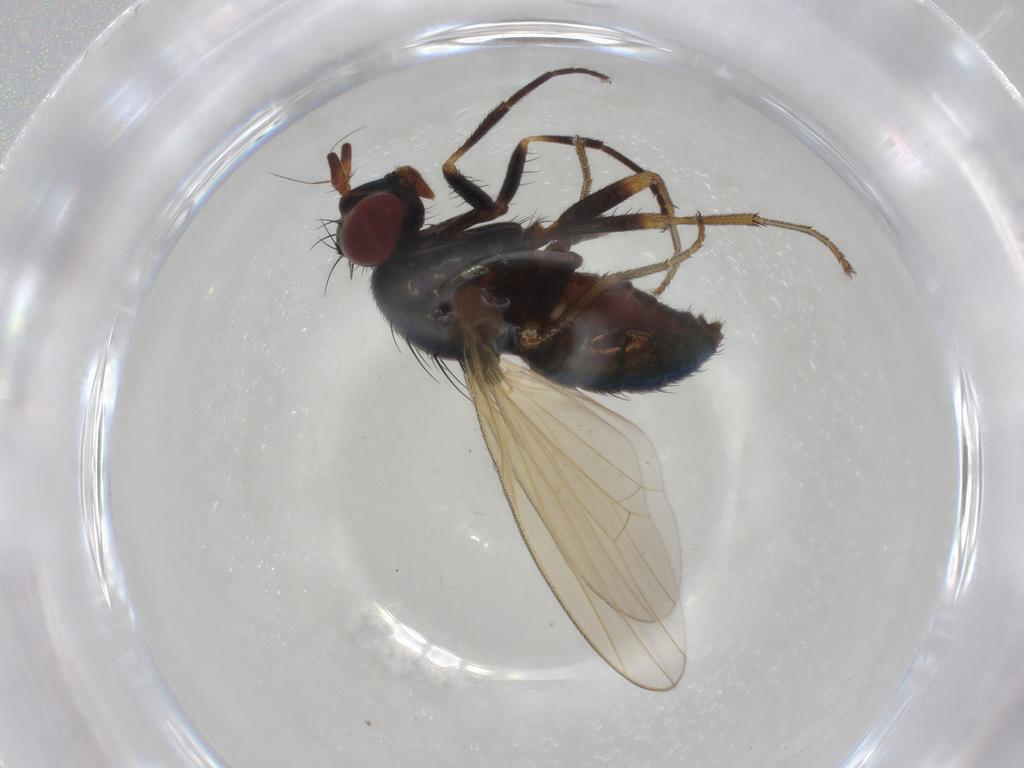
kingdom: Animalia
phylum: Arthropoda
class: Insecta
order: Diptera
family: Lauxaniidae
